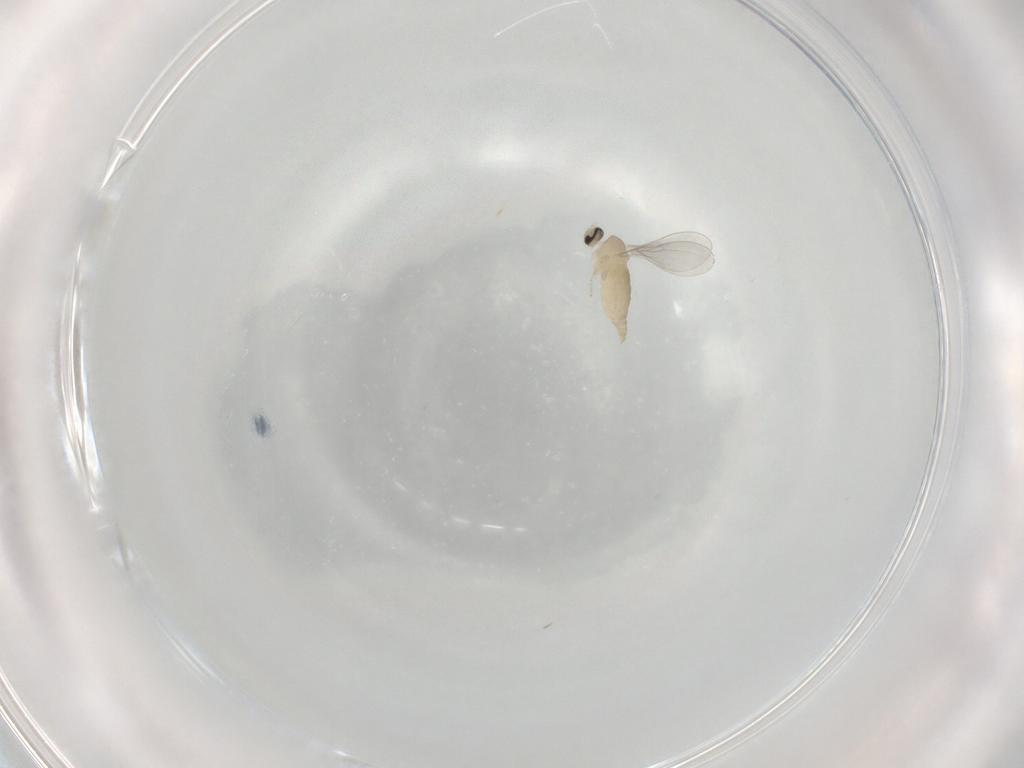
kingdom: Animalia
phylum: Arthropoda
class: Insecta
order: Diptera
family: Cecidomyiidae
